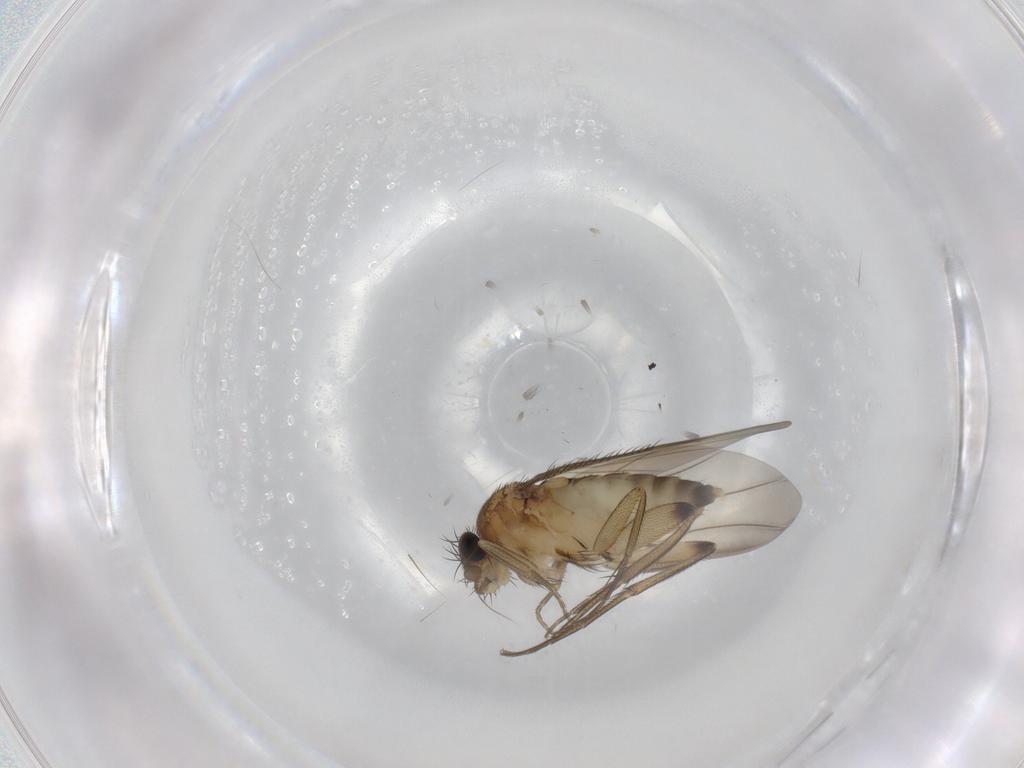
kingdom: Animalia
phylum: Arthropoda
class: Insecta
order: Diptera
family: Phoridae
